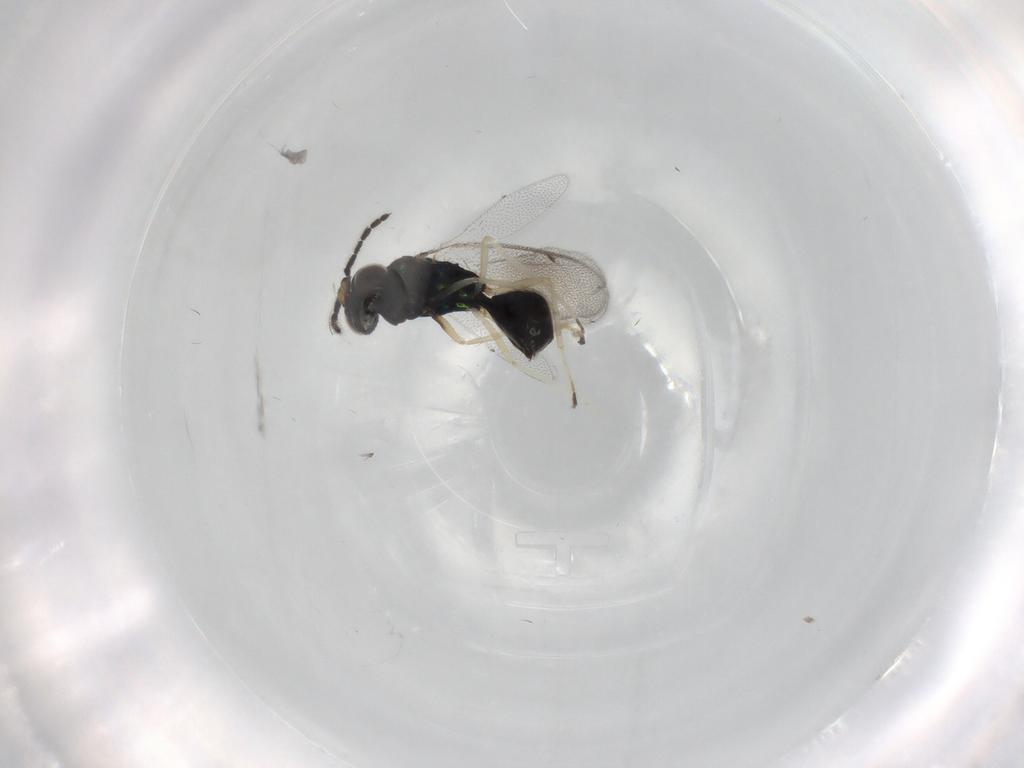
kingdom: Animalia
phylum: Arthropoda
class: Insecta
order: Hymenoptera
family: Eulophidae
